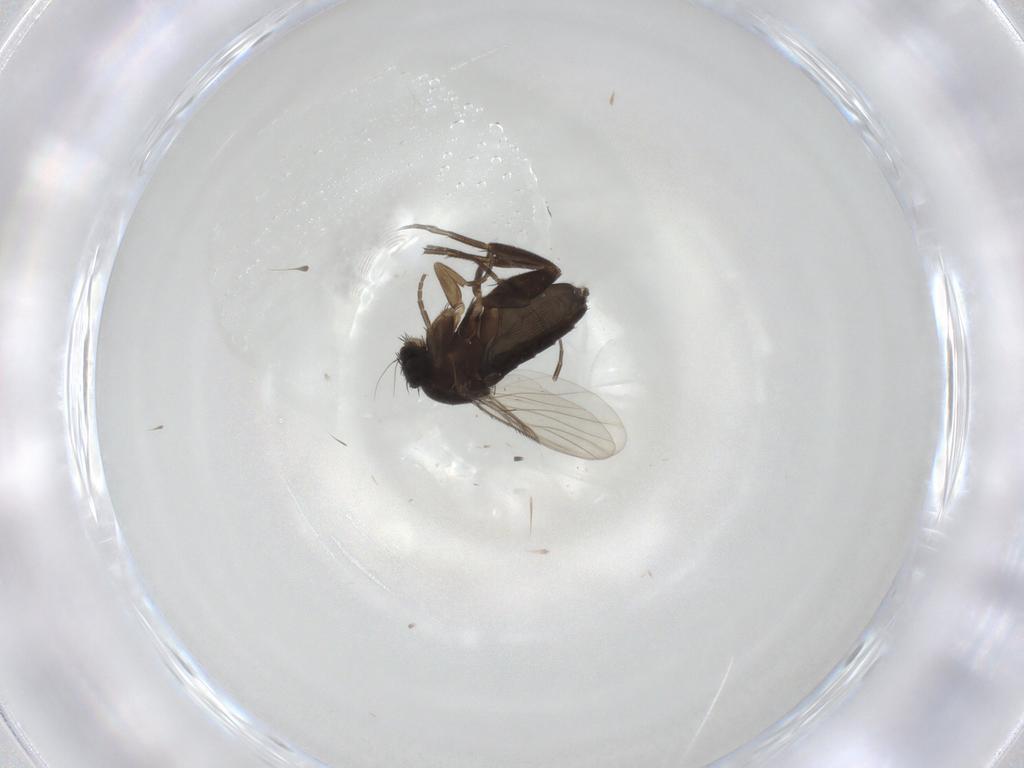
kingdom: Animalia
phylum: Arthropoda
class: Insecta
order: Diptera
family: Phoridae
